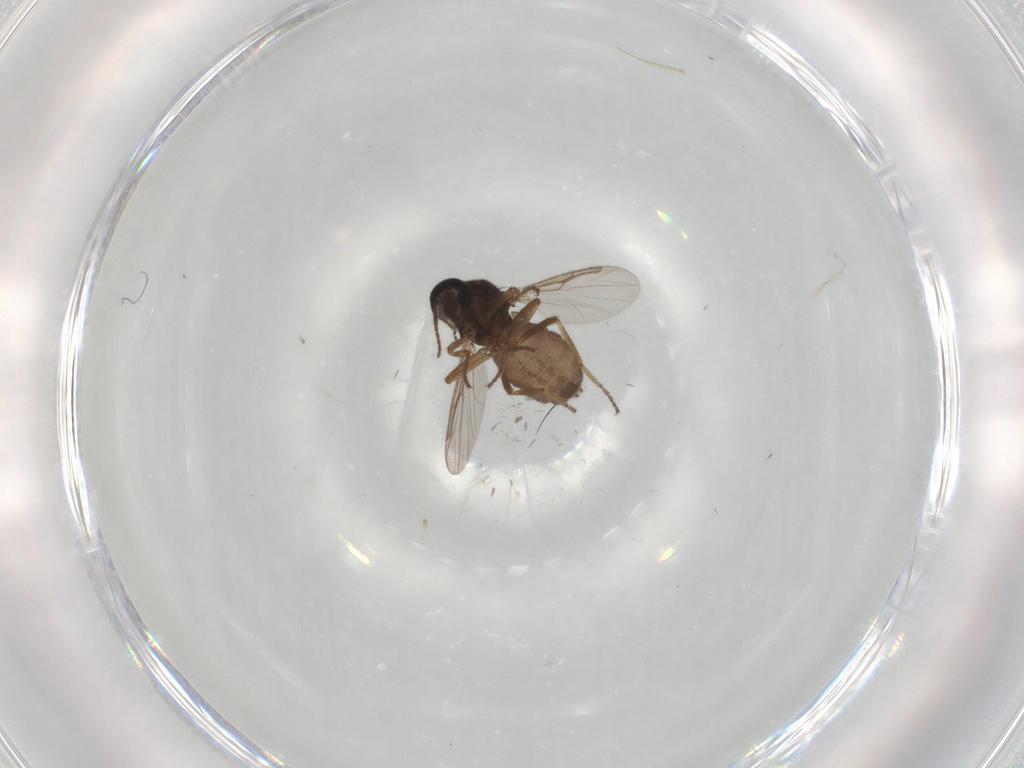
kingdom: Animalia
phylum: Arthropoda
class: Insecta
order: Diptera
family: Ceratopogonidae
